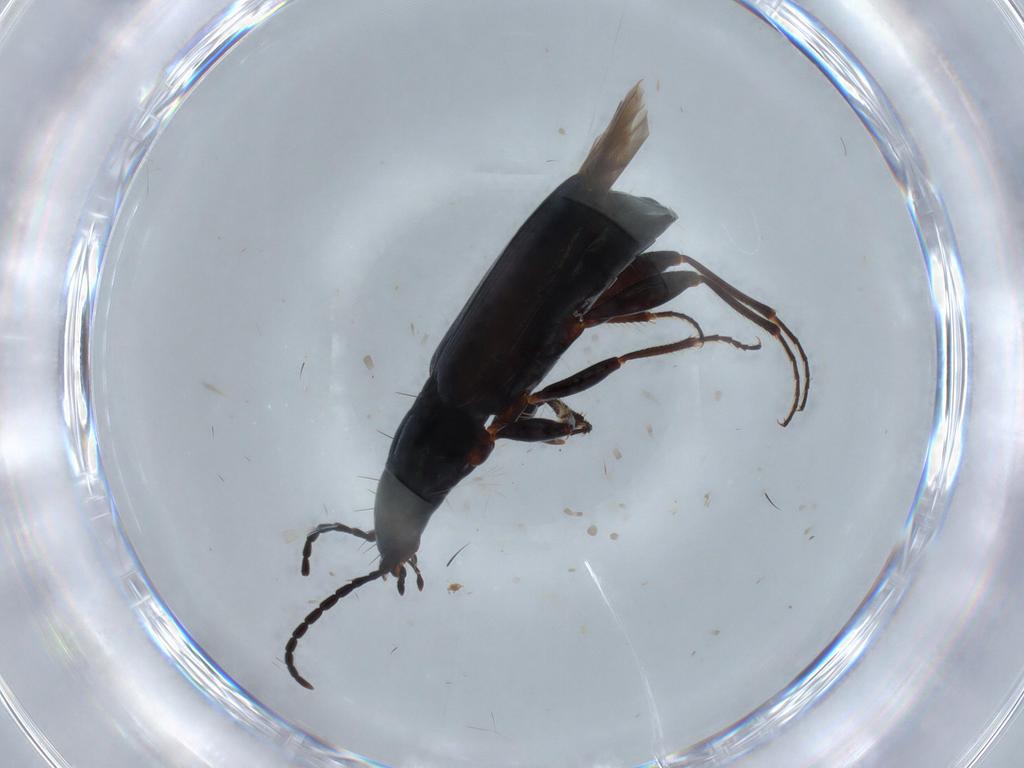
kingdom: Animalia
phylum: Arthropoda
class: Insecta
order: Coleoptera
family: Carabidae
